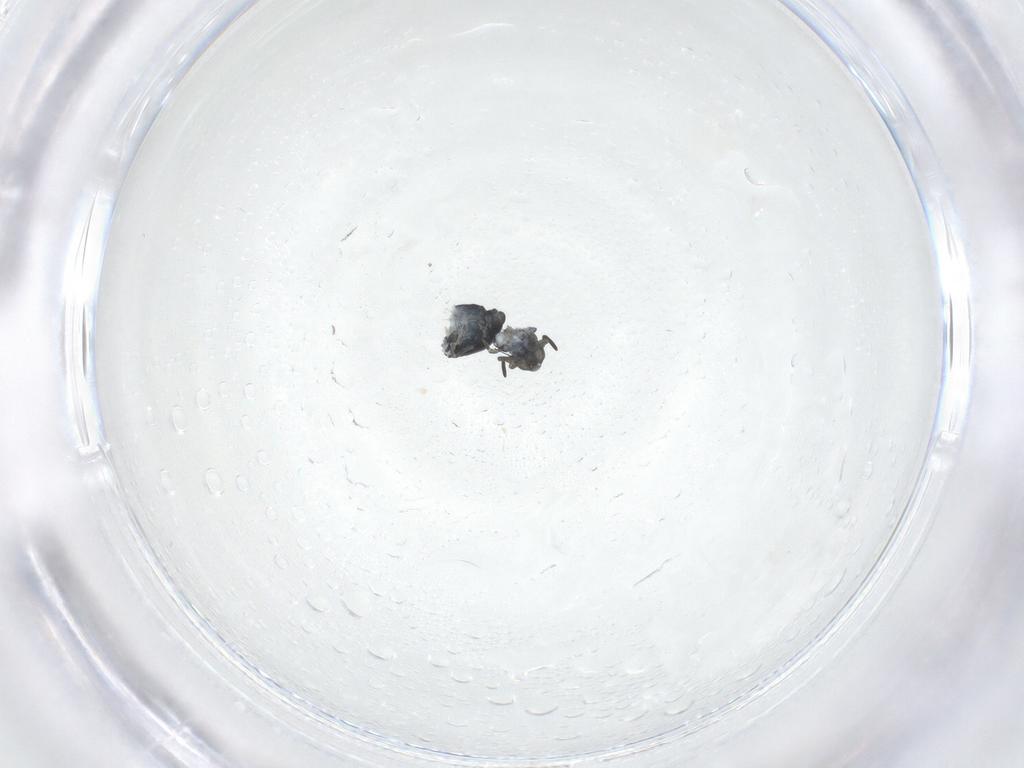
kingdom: Animalia
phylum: Arthropoda
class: Collembola
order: Symphypleona
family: Katiannidae
